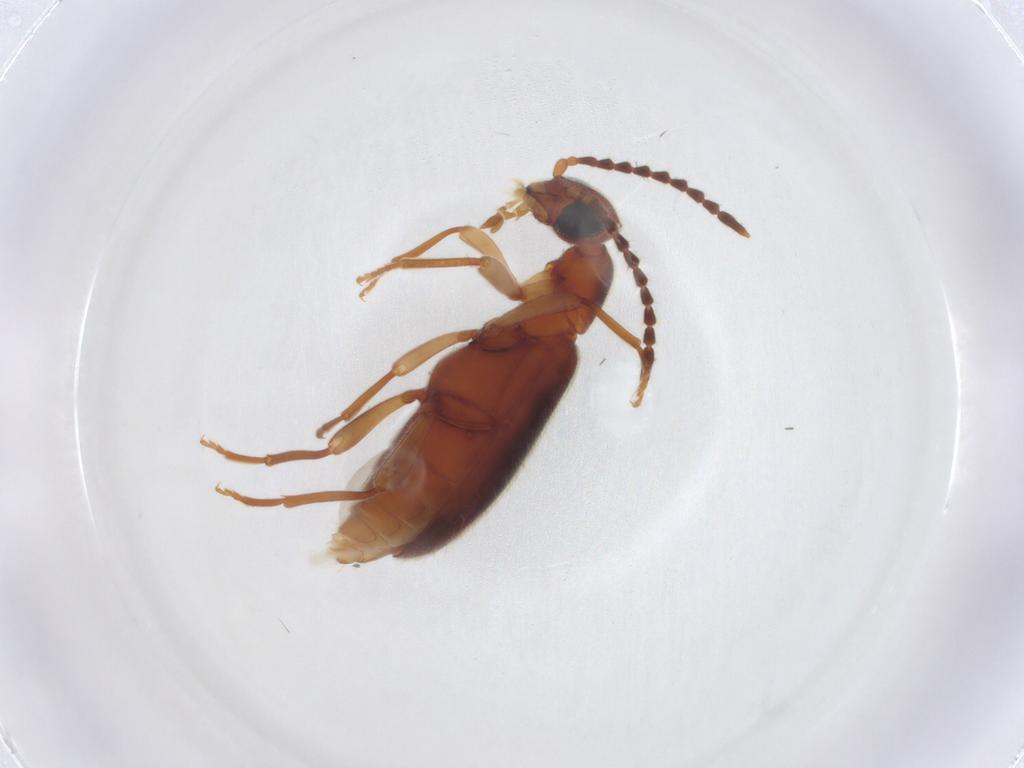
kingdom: Animalia
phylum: Arthropoda
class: Insecta
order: Coleoptera
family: Anthicidae
